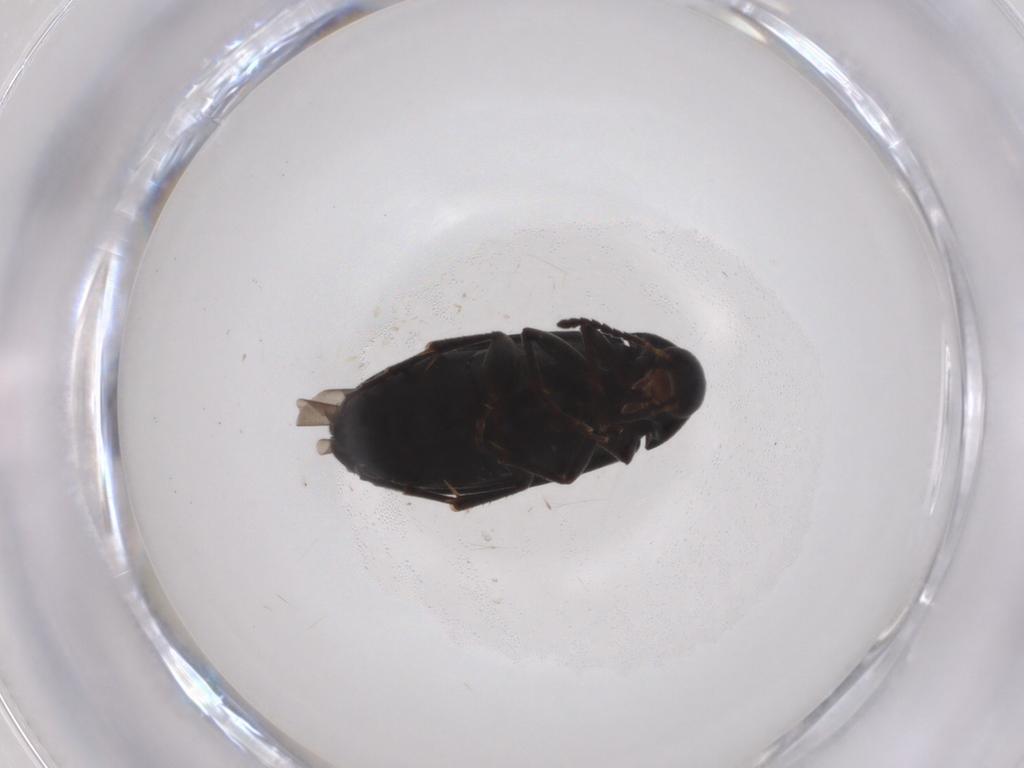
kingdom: Animalia
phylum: Arthropoda
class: Insecta
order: Coleoptera
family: Scraptiidae
